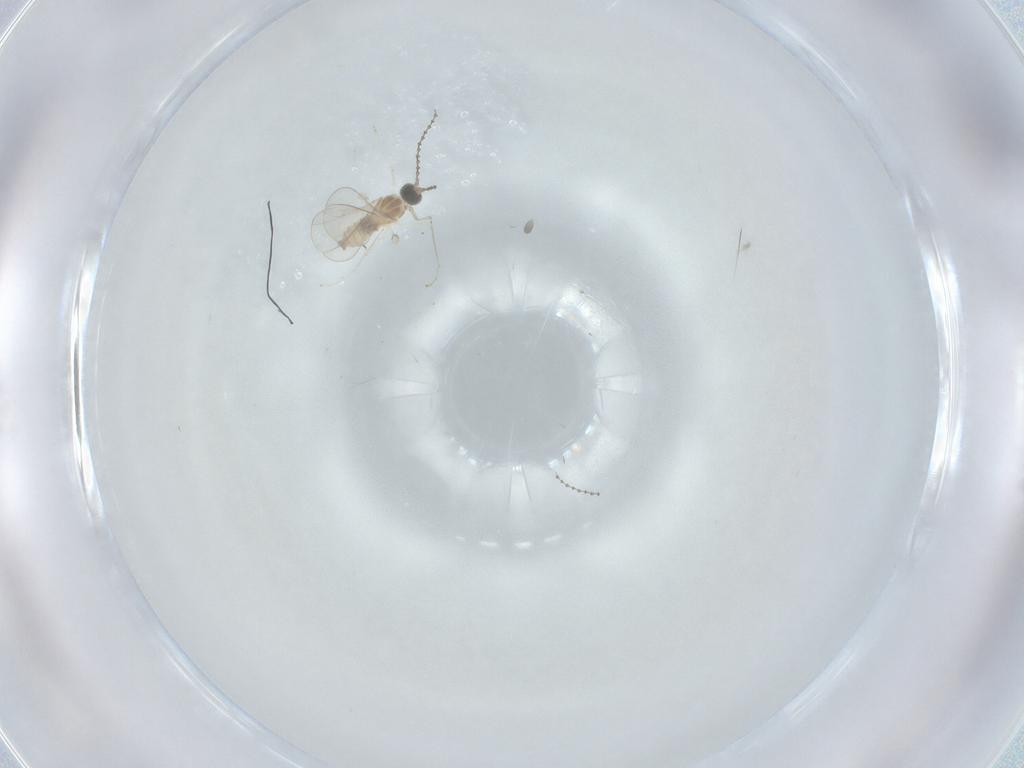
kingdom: Animalia
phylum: Arthropoda
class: Insecta
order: Diptera
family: Cecidomyiidae
